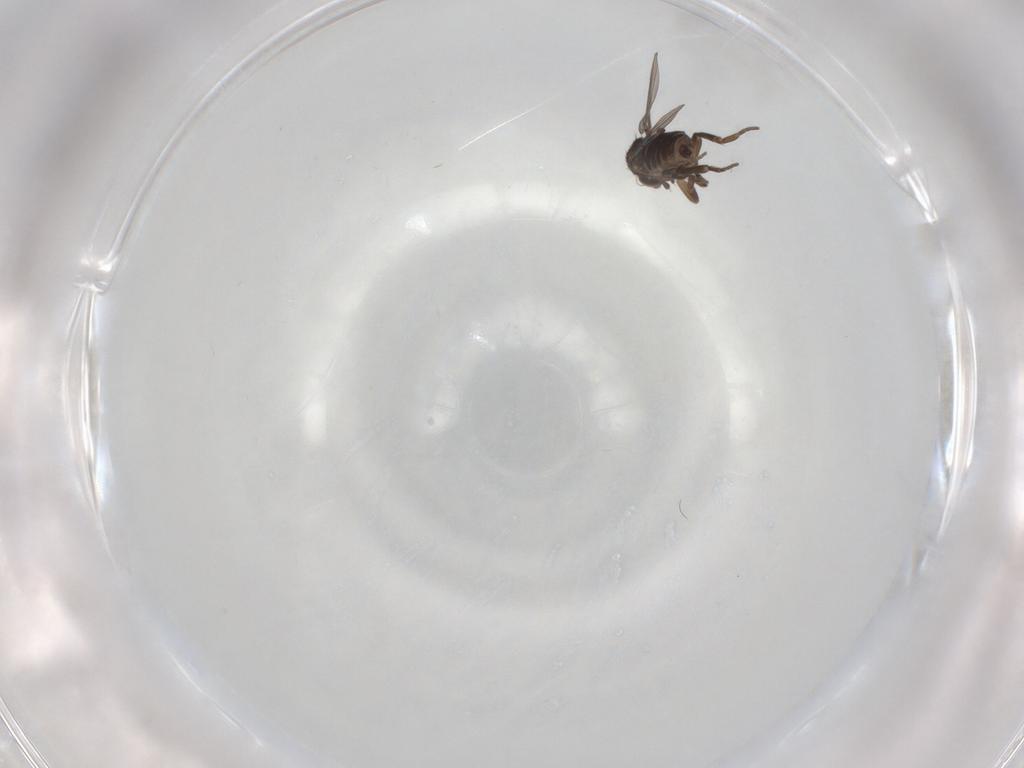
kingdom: Animalia
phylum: Arthropoda
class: Insecta
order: Diptera
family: Phoridae
